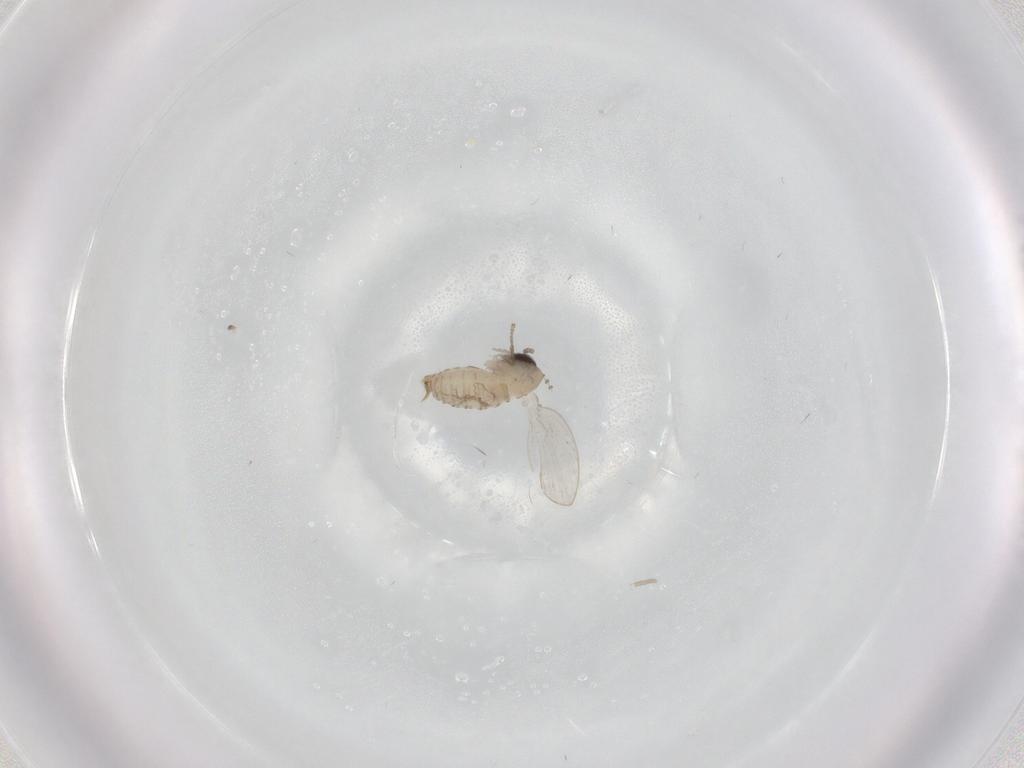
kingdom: Animalia
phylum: Arthropoda
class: Insecta
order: Diptera
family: Psychodidae
